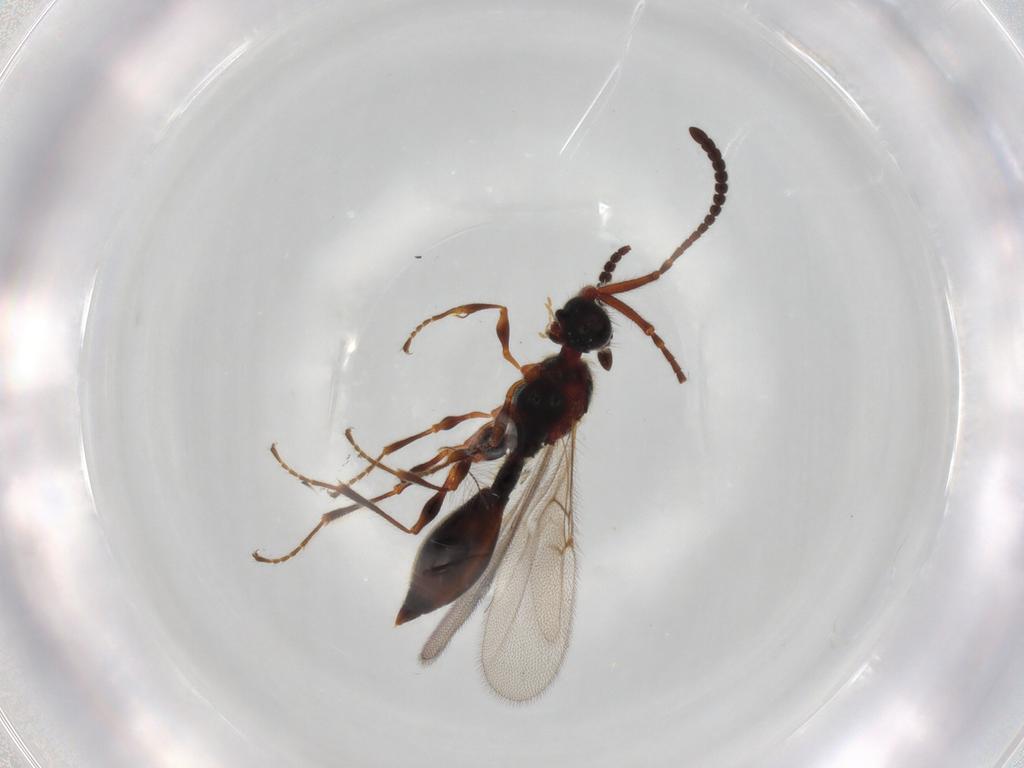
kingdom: Animalia
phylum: Arthropoda
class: Insecta
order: Hymenoptera
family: Diapriidae
